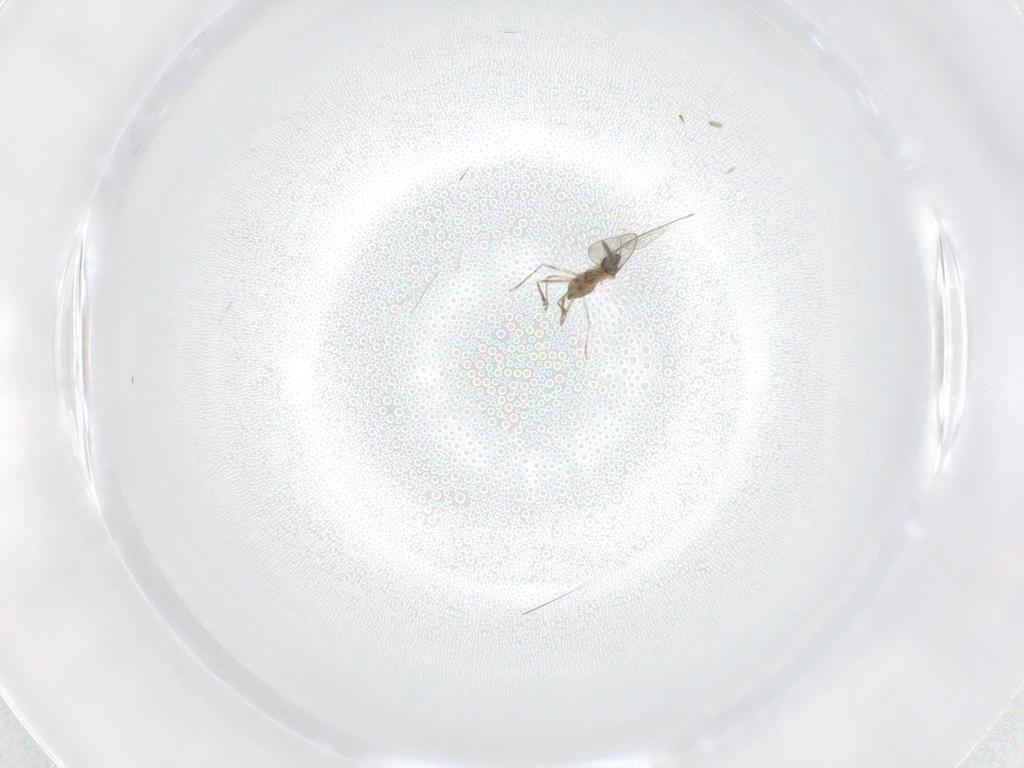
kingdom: Animalia
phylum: Arthropoda
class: Insecta
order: Diptera
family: Cecidomyiidae
